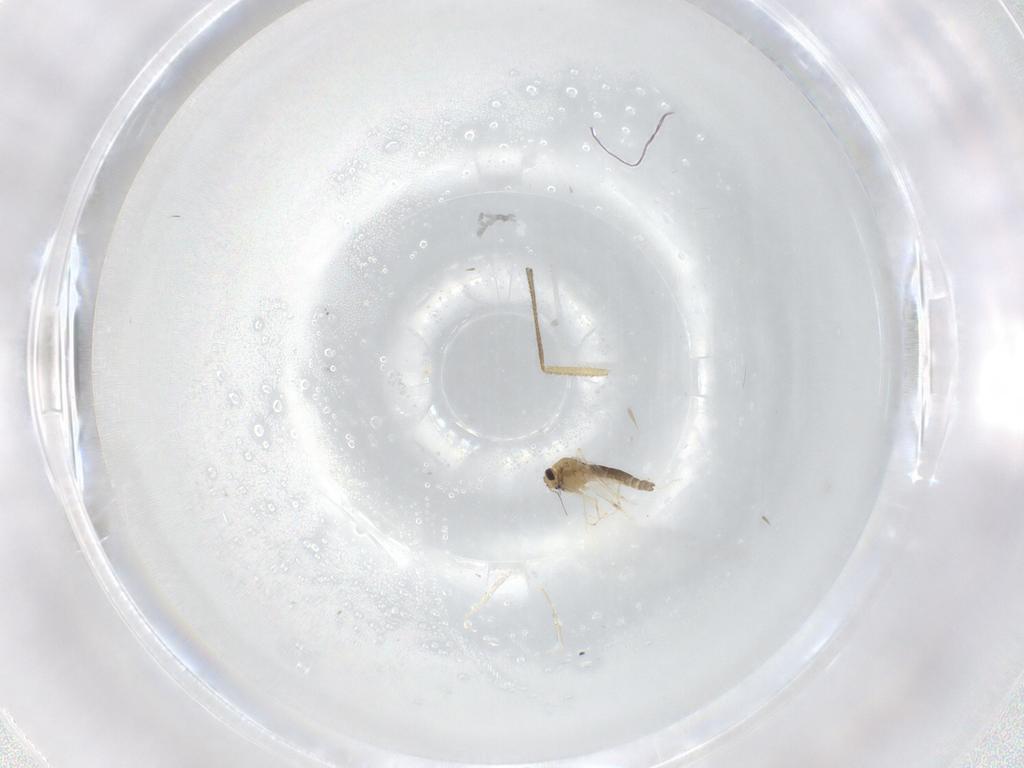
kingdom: Animalia
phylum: Arthropoda
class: Insecta
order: Diptera
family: Chironomidae
